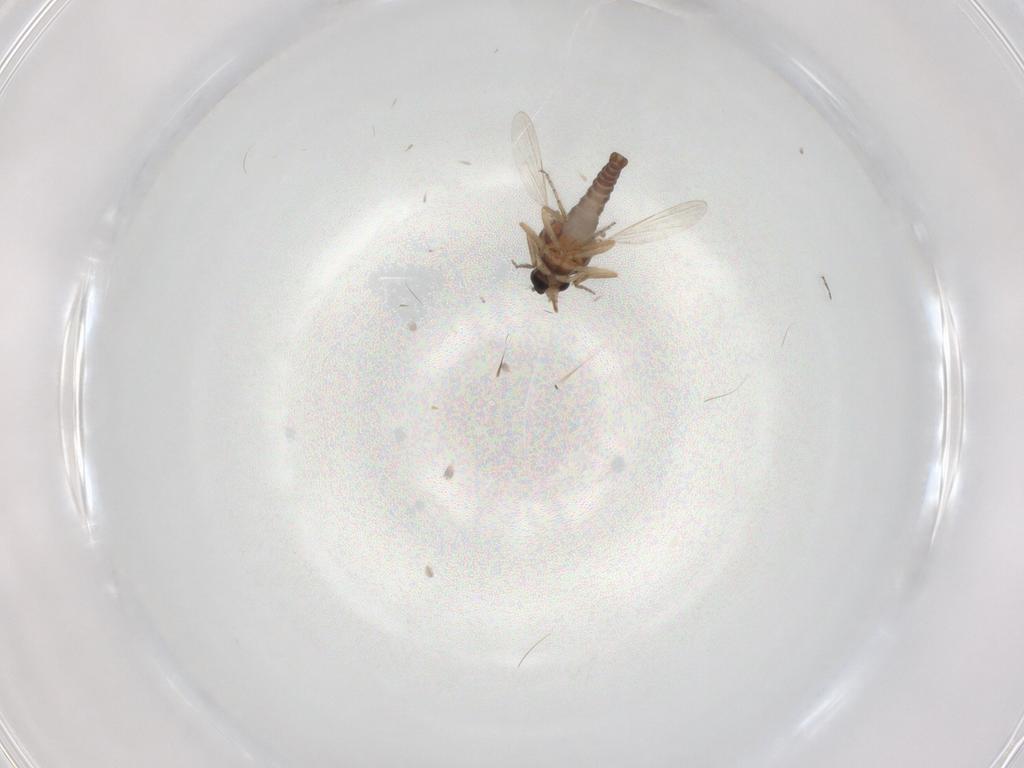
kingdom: Animalia
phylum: Arthropoda
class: Insecta
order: Diptera
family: Ceratopogonidae
